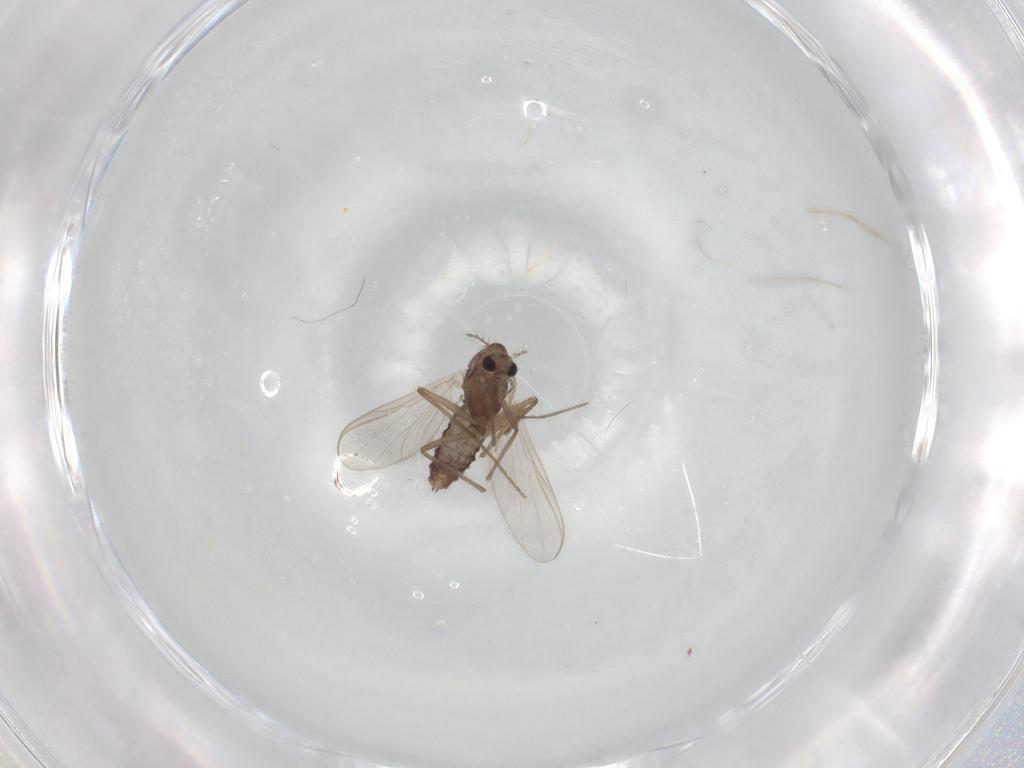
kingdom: Animalia
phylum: Arthropoda
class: Insecta
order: Diptera
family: Chironomidae
